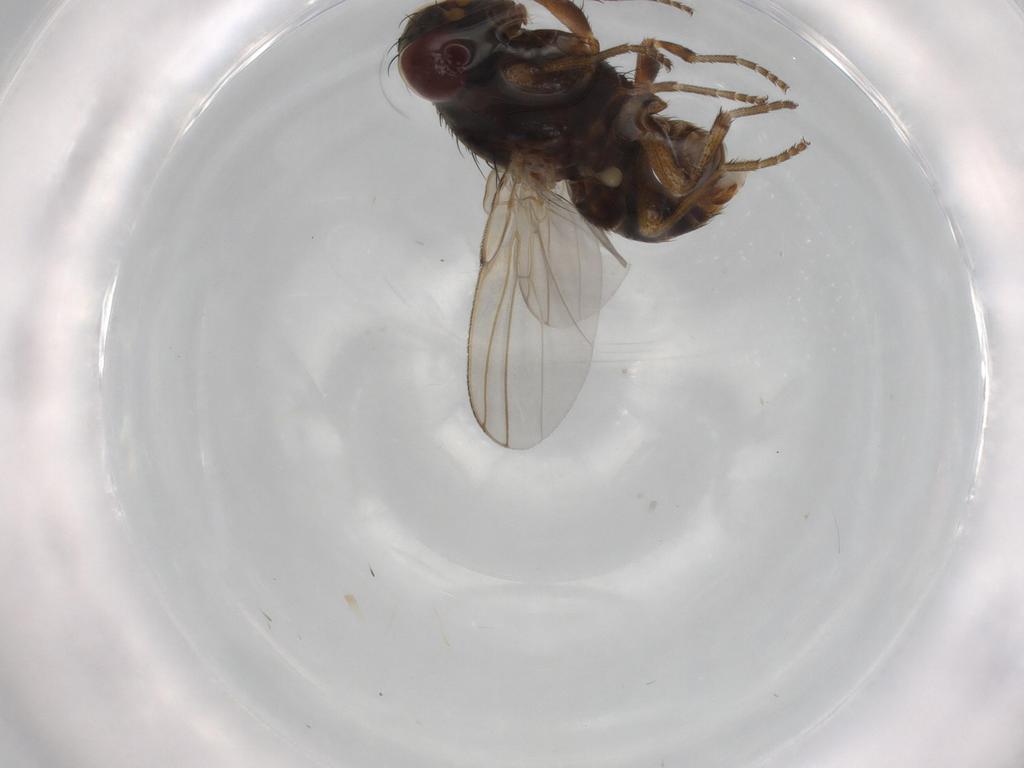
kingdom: Animalia
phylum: Arthropoda
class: Insecta
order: Diptera
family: Odiniidae
